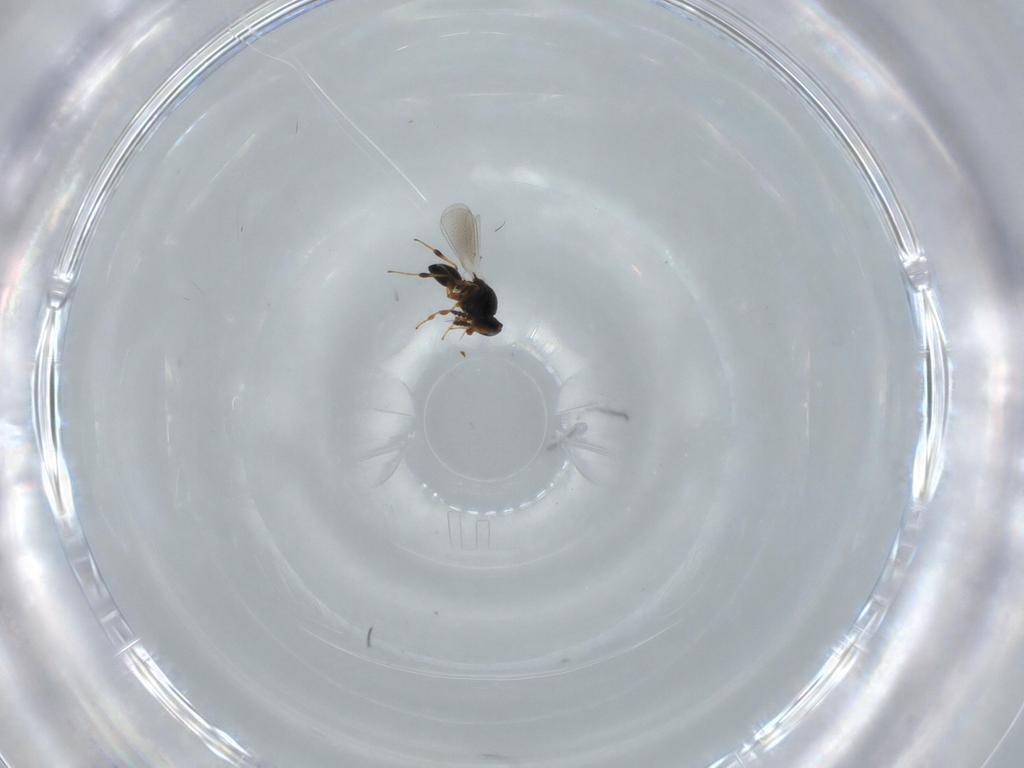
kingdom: Animalia
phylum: Arthropoda
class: Insecta
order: Hymenoptera
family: Platygastridae
